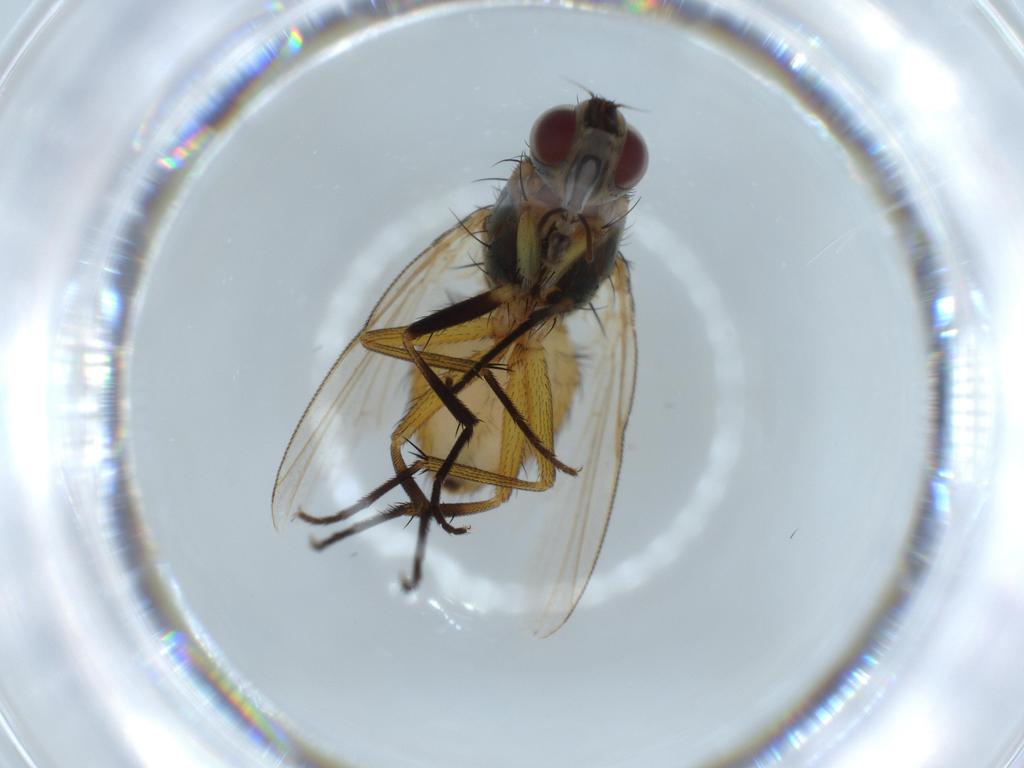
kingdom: Animalia
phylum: Arthropoda
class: Insecta
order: Diptera
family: Muscidae
